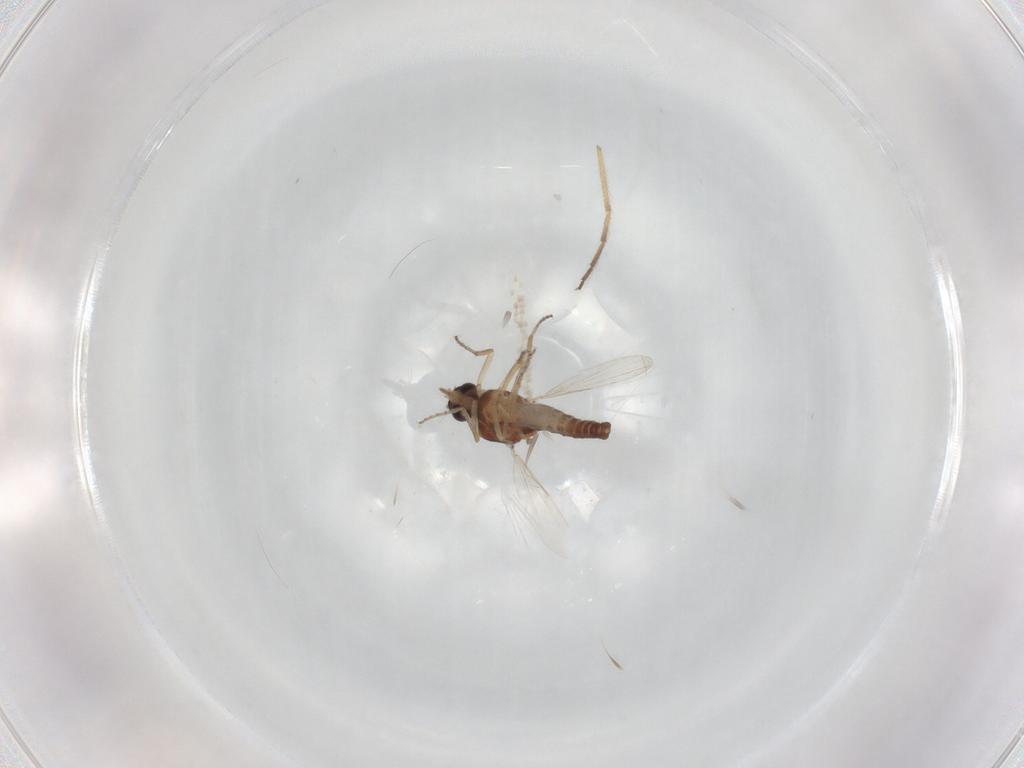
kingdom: Animalia
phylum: Arthropoda
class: Insecta
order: Diptera
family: Ceratopogonidae
